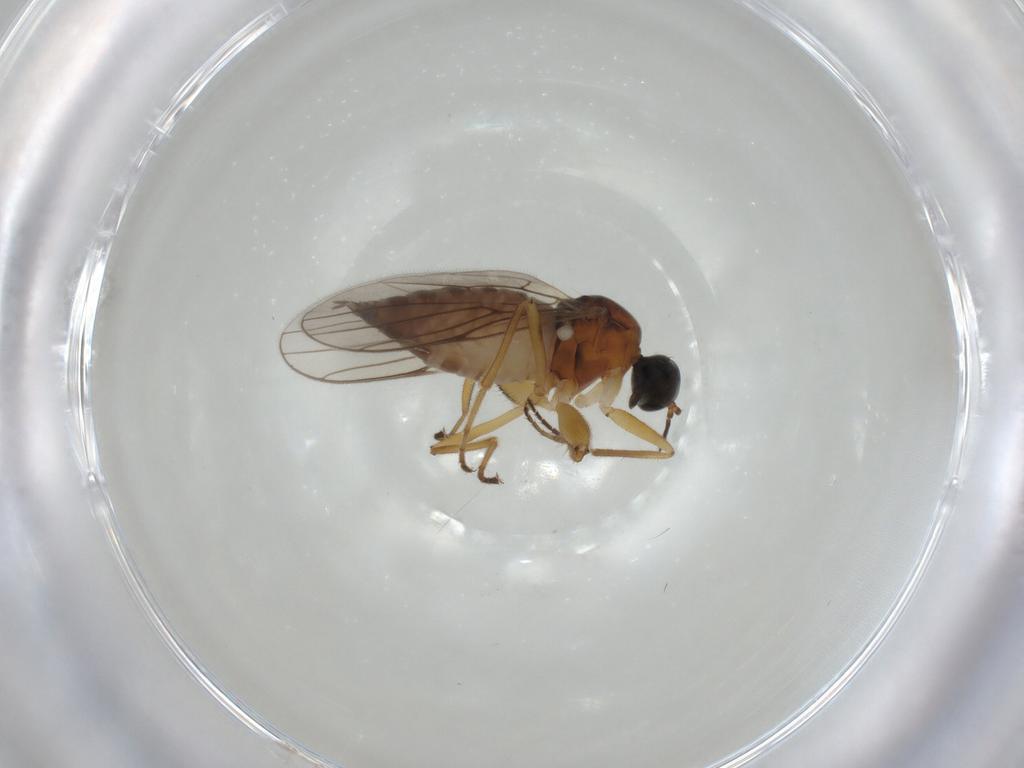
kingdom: Animalia
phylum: Arthropoda
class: Insecta
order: Diptera
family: Hybotidae
